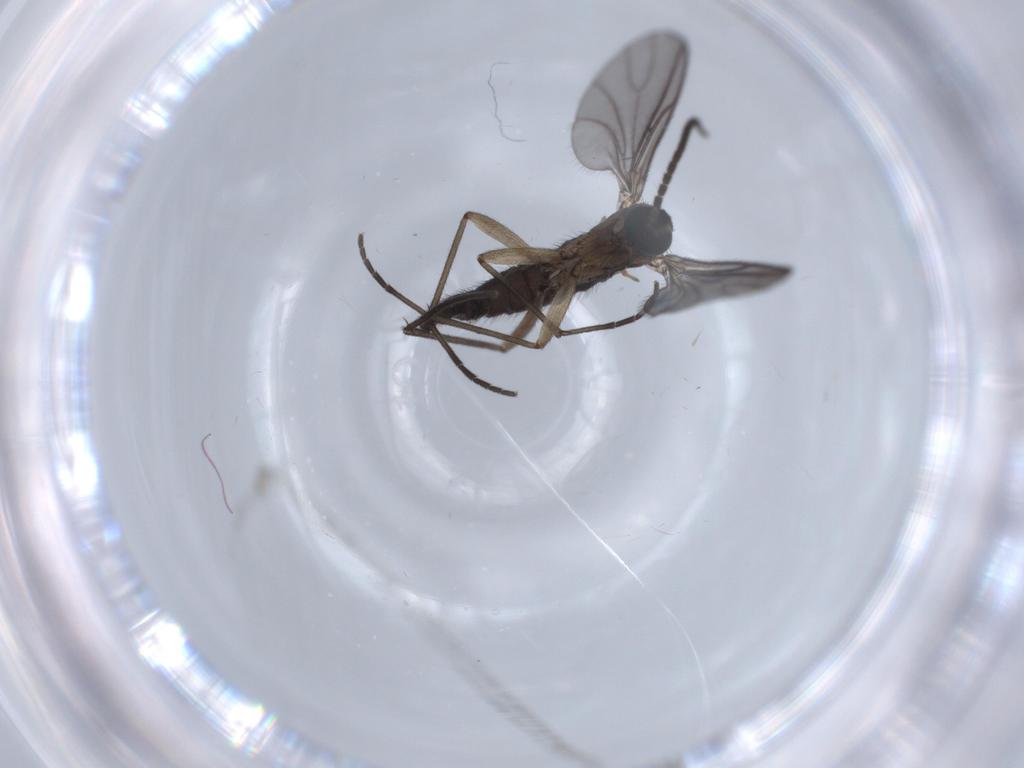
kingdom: Animalia
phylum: Arthropoda
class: Insecta
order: Diptera
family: Sciaridae
